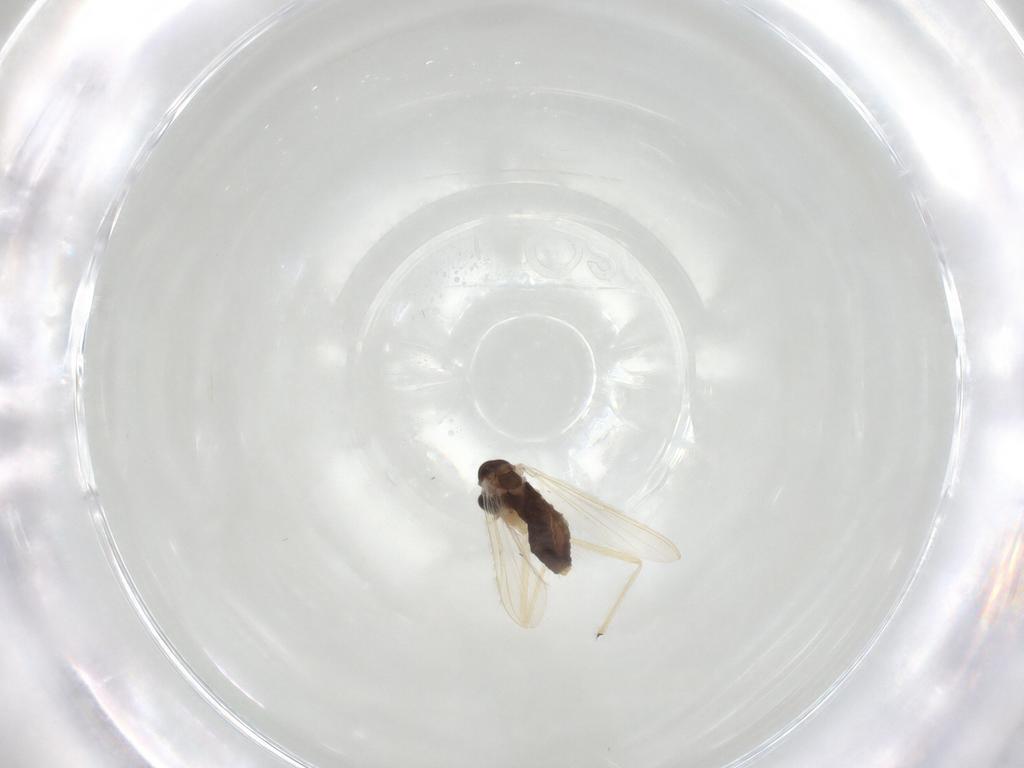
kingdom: Animalia
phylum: Arthropoda
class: Insecta
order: Diptera
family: Chironomidae
